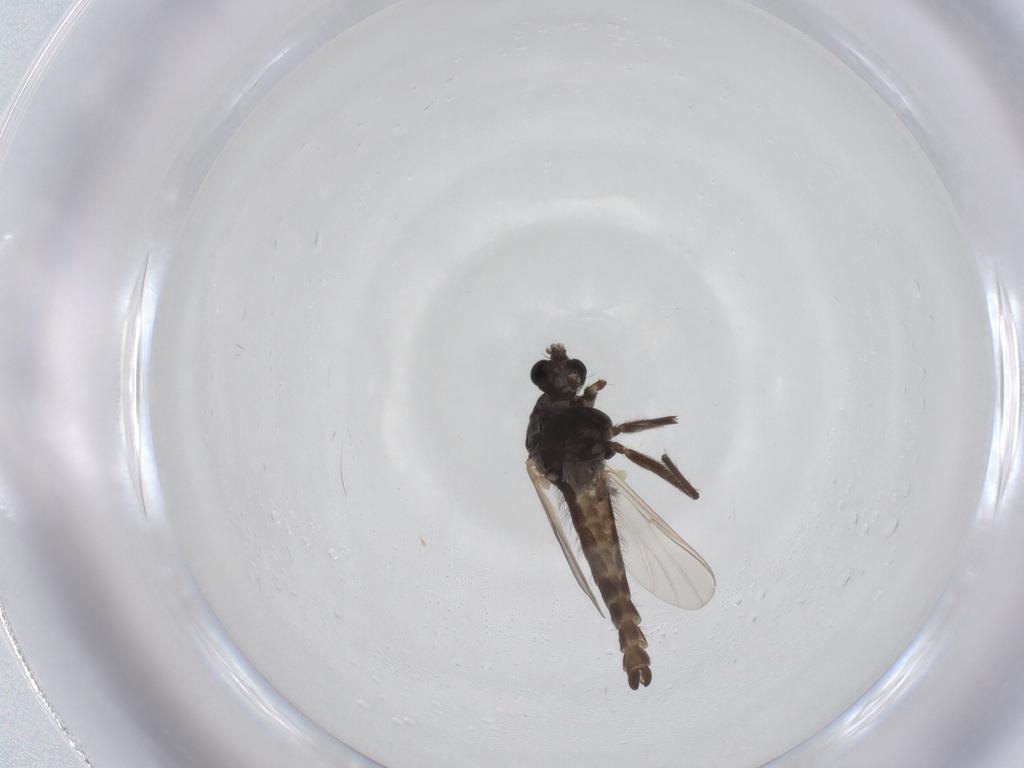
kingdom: Animalia
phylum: Arthropoda
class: Insecta
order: Diptera
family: Chironomidae
